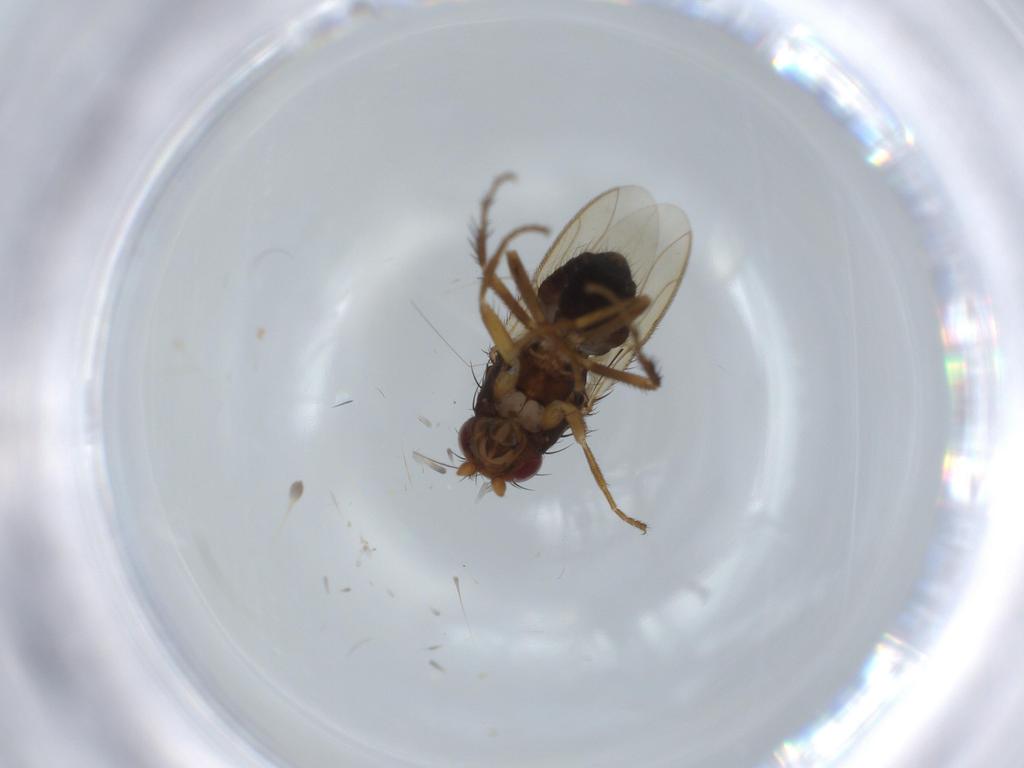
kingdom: Animalia
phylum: Arthropoda
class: Insecta
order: Diptera
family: Sphaeroceridae
